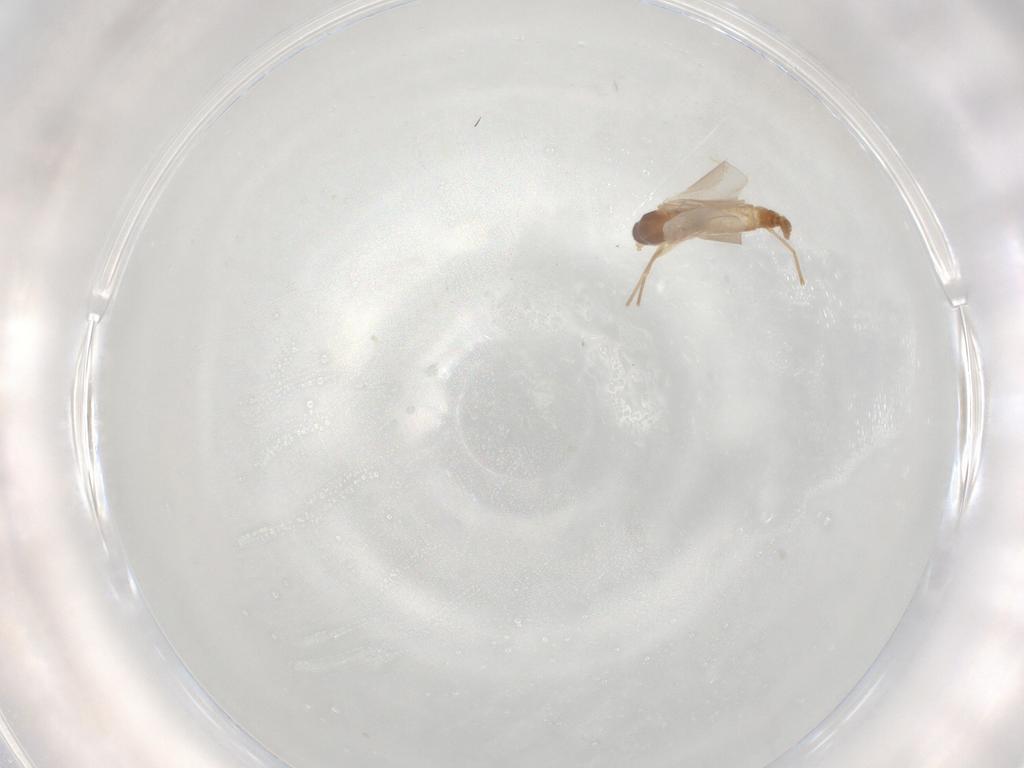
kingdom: Animalia
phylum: Arthropoda
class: Insecta
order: Diptera
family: Cecidomyiidae
